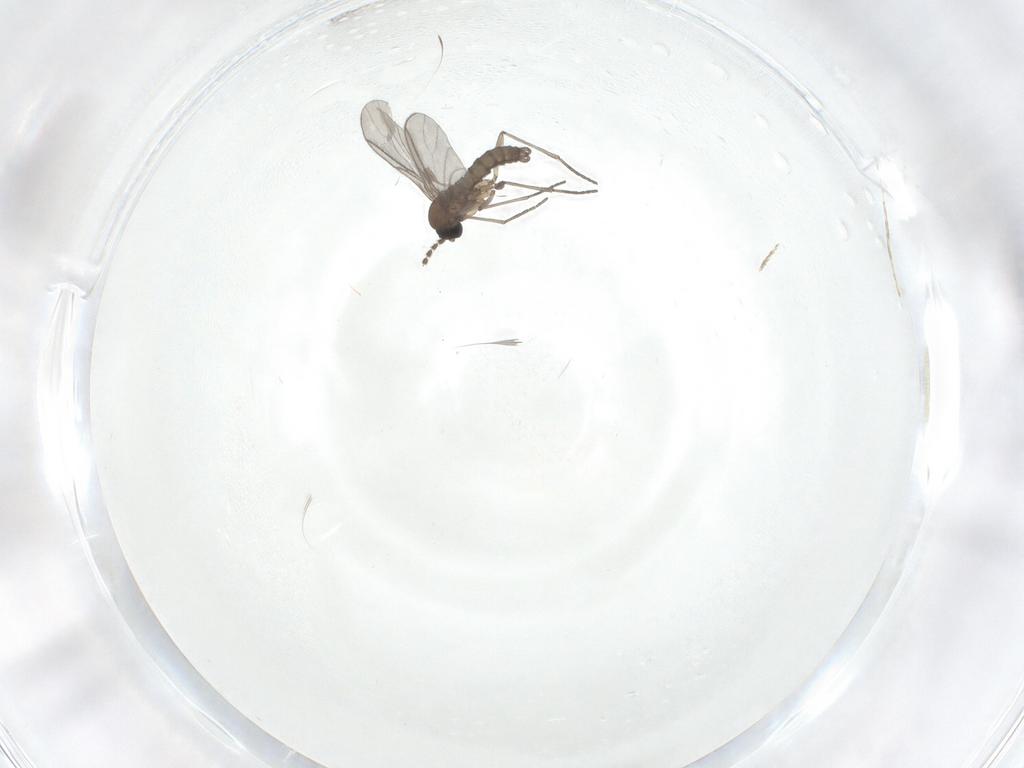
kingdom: Animalia
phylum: Arthropoda
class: Insecta
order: Diptera
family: Cecidomyiidae
